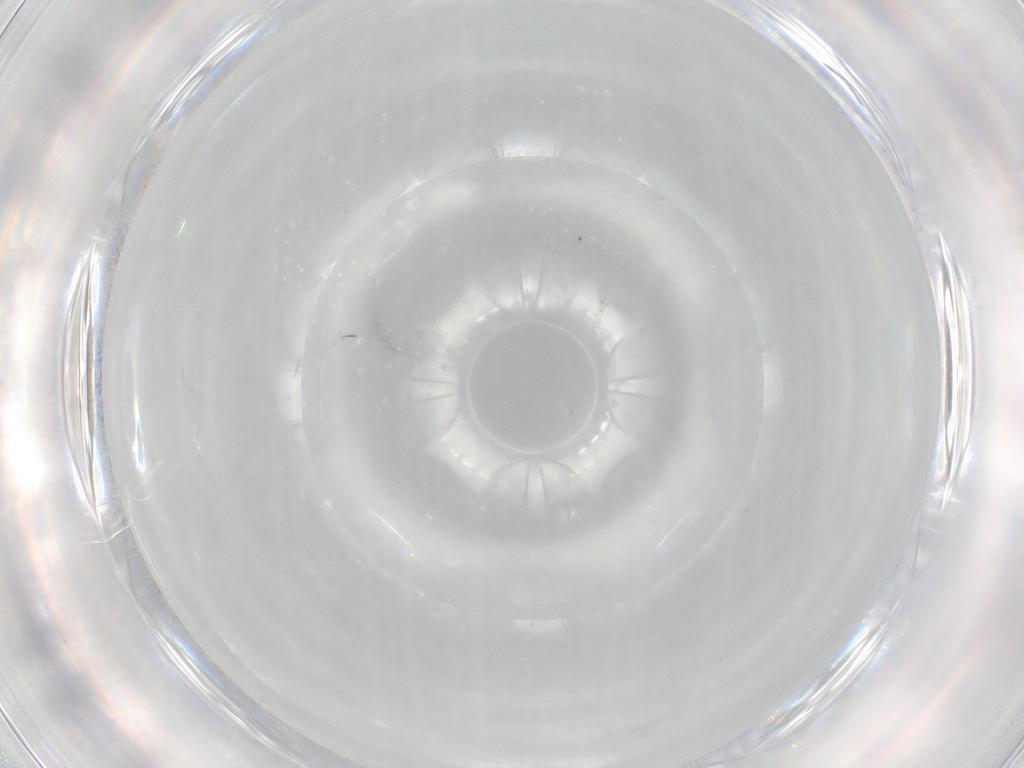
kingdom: Animalia
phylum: Arthropoda
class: Insecta
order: Diptera
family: Cecidomyiidae
